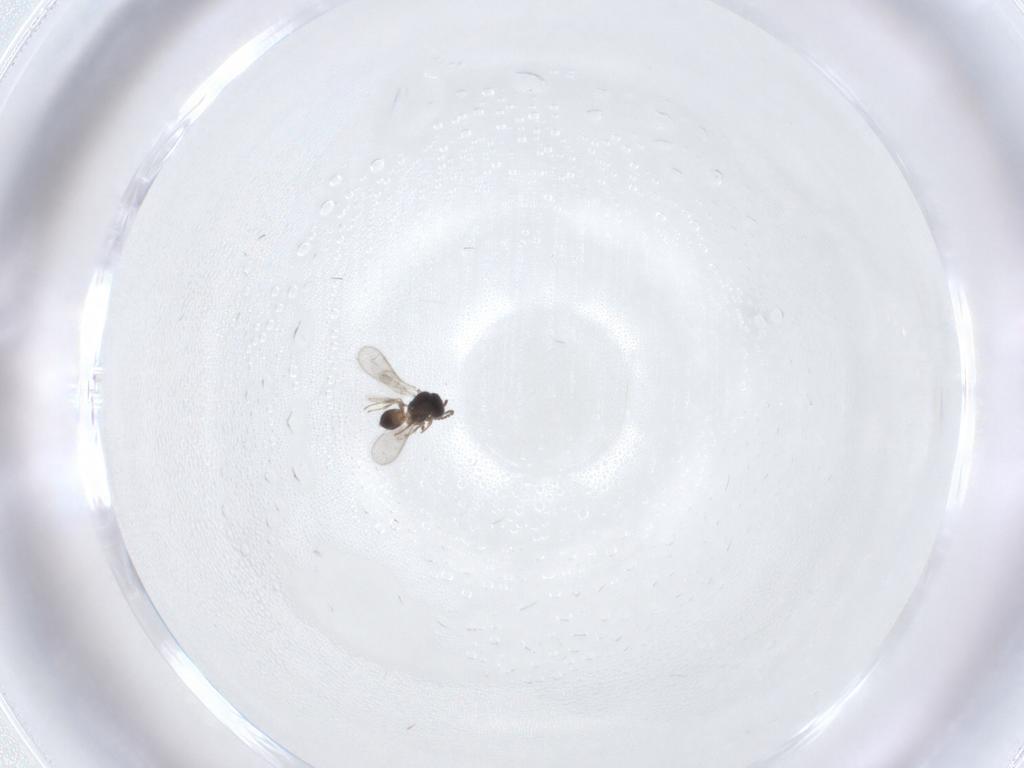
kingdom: Animalia
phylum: Arthropoda
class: Insecta
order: Hymenoptera
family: Scelionidae
